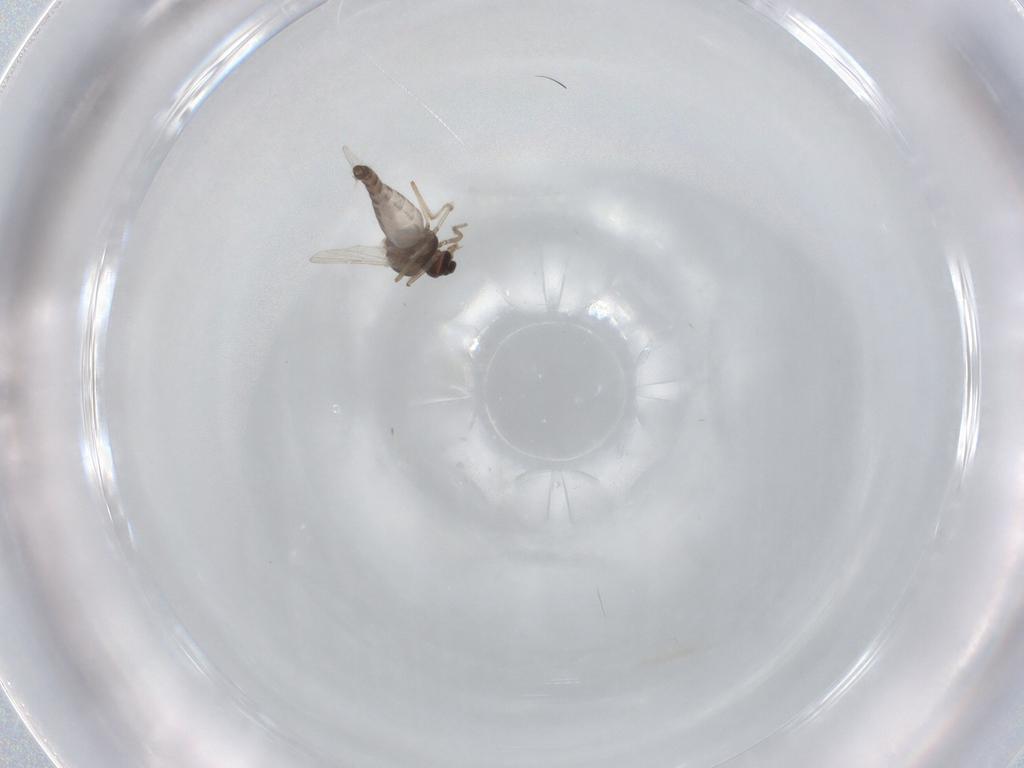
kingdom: Animalia
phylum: Arthropoda
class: Insecta
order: Diptera
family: Ceratopogonidae
